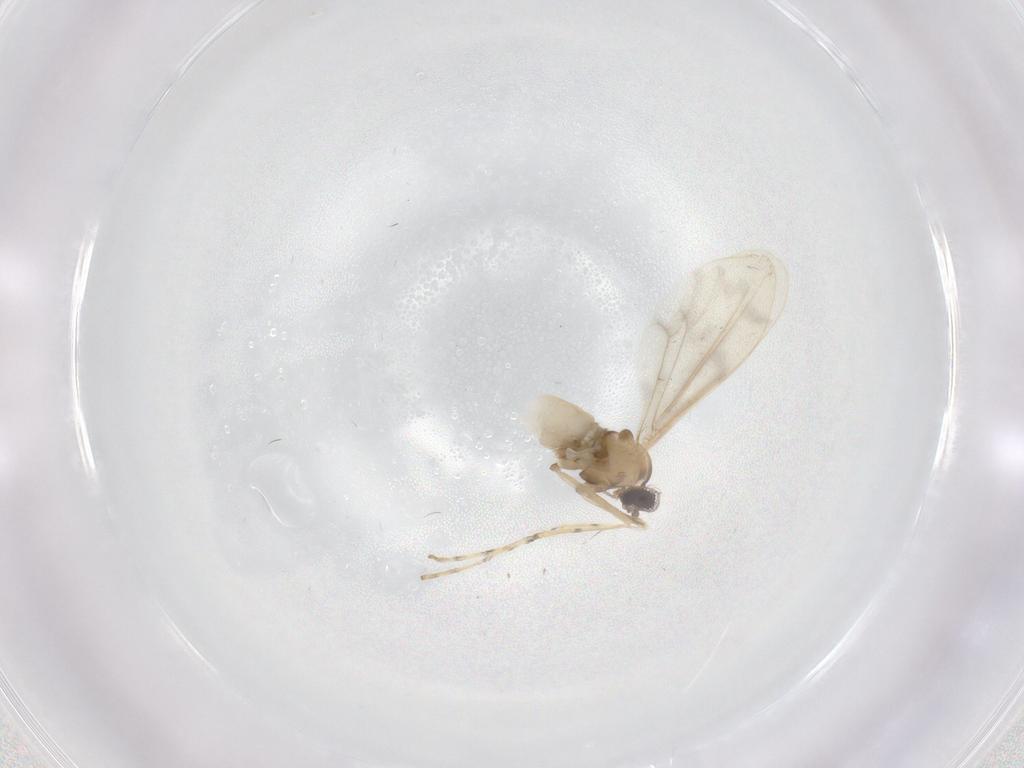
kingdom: Animalia
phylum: Arthropoda
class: Insecta
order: Diptera
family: Cecidomyiidae
